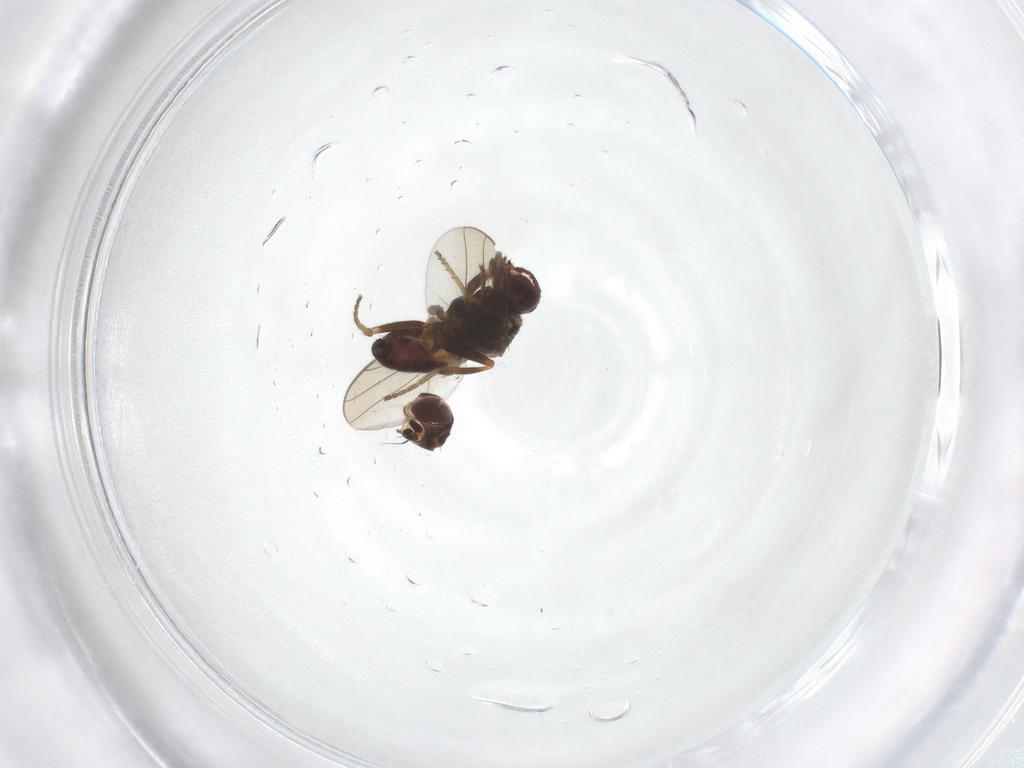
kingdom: Animalia
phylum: Arthropoda
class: Insecta
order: Diptera
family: Chloropidae
